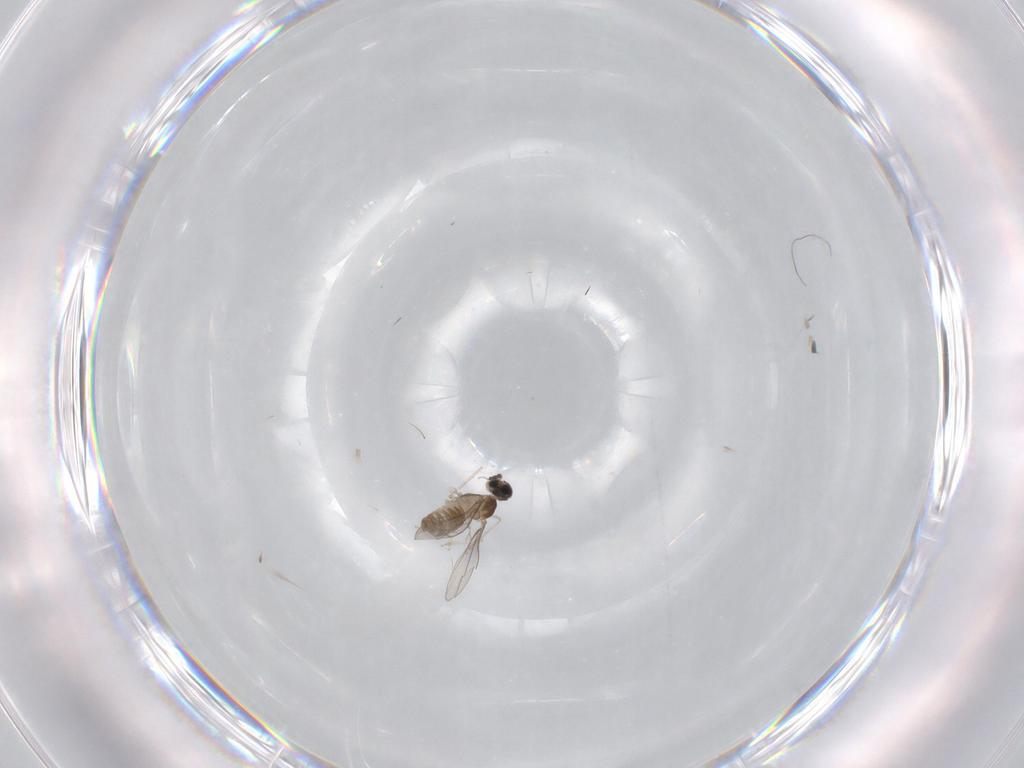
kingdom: Animalia
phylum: Arthropoda
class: Insecta
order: Diptera
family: Cecidomyiidae
